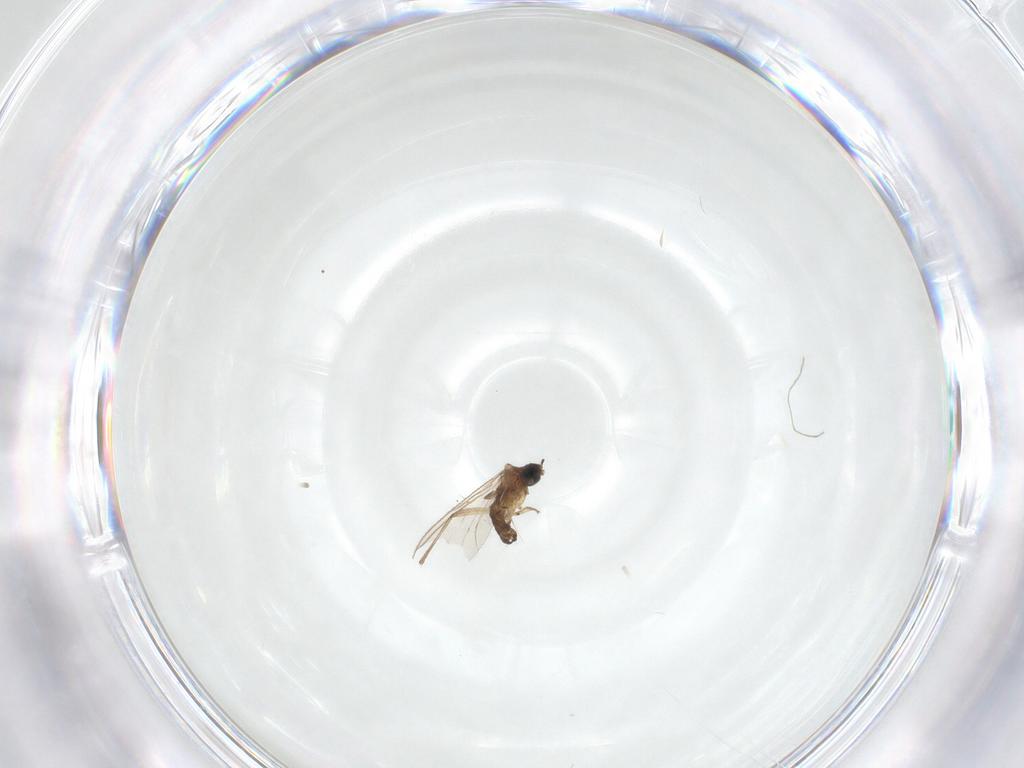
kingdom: Animalia
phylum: Arthropoda
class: Insecta
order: Diptera
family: Sciaridae
